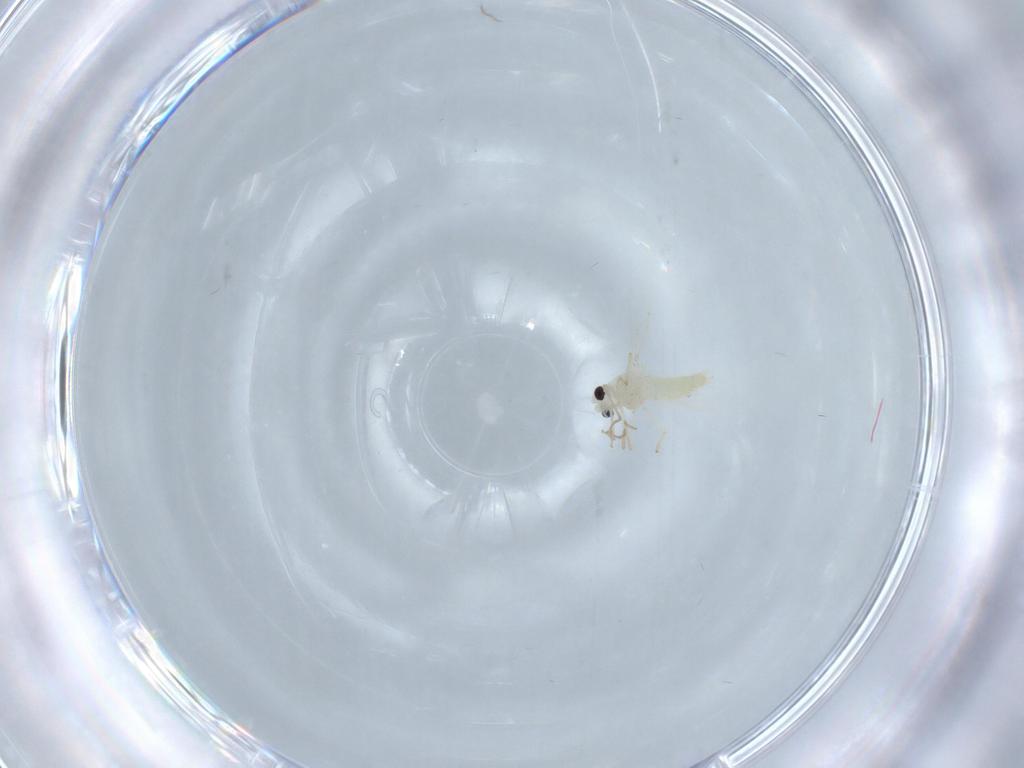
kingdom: Animalia
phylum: Arthropoda
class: Insecta
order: Diptera
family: Chironomidae
